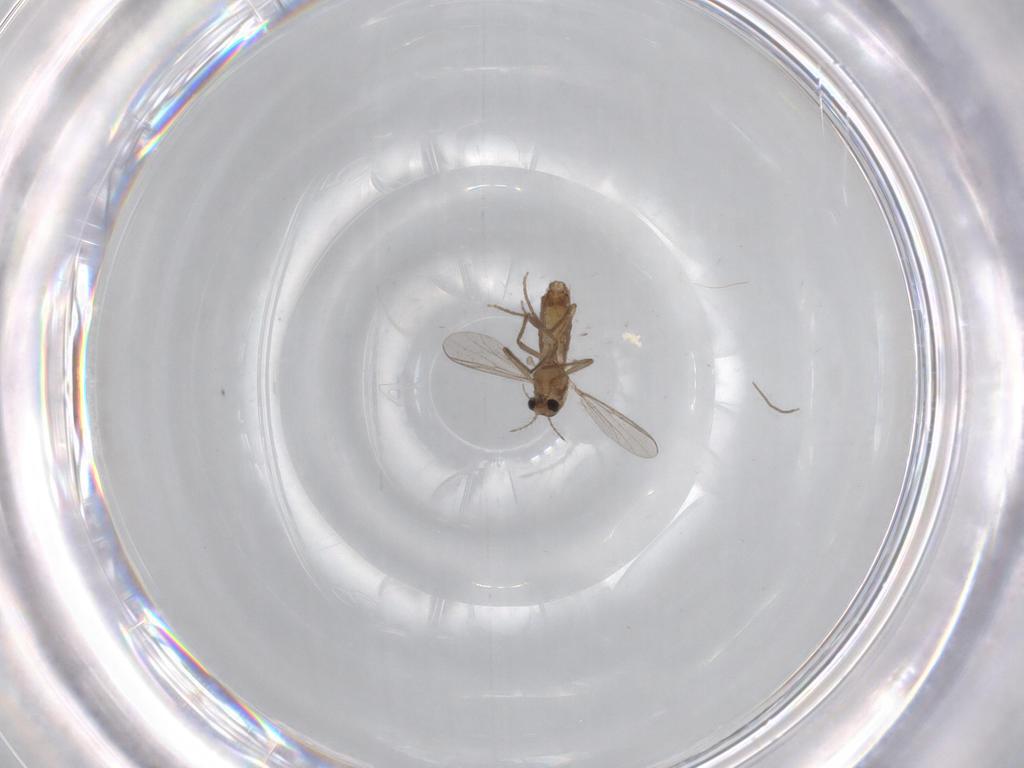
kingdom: Animalia
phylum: Arthropoda
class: Insecta
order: Diptera
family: Chironomidae
